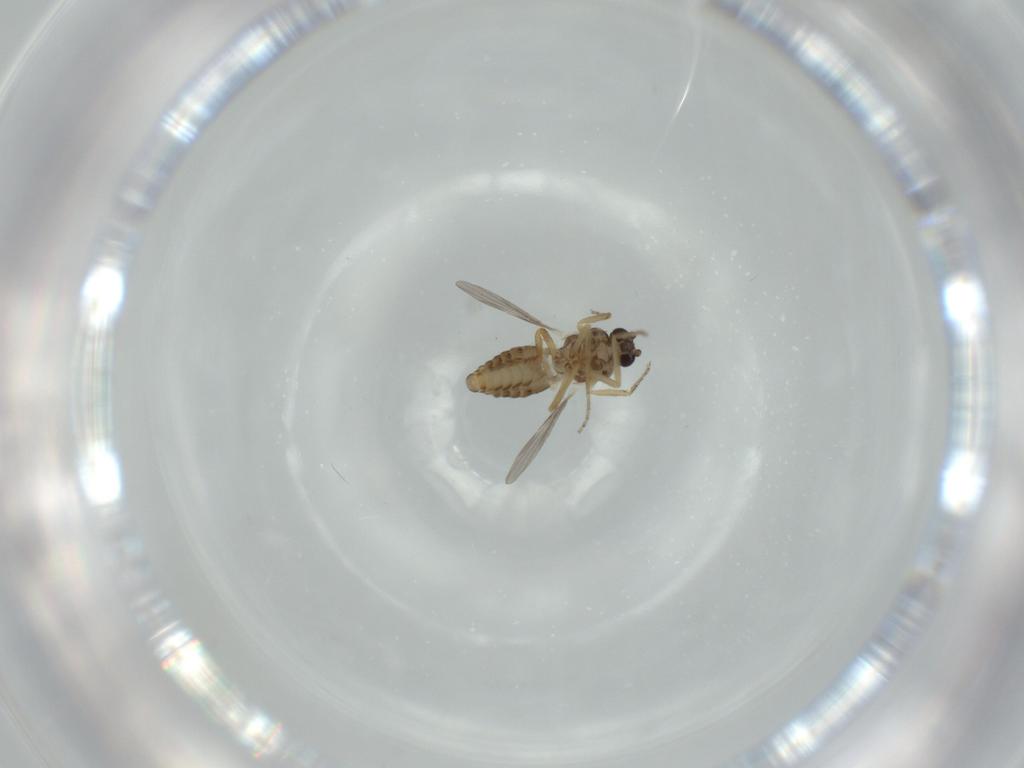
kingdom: Animalia
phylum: Arthropoda
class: Insecta
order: Diptera
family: Ceratopogonidae
